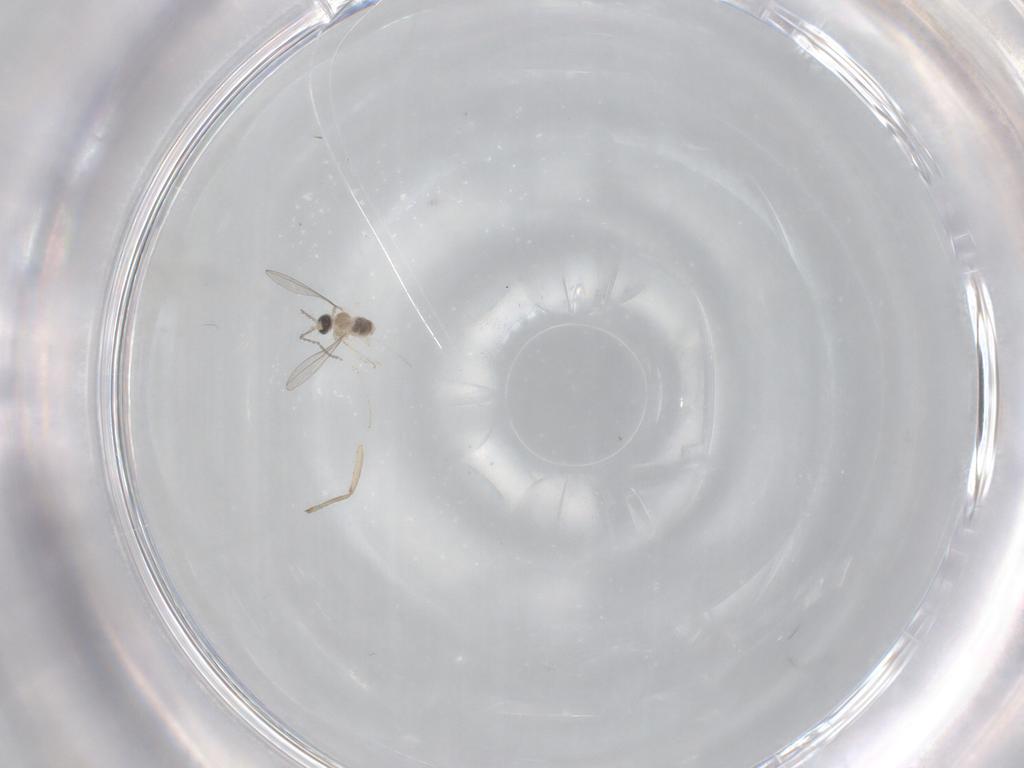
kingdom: Animalia
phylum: Arthropoda
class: Insecta
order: Diptera
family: Cecidomyiidae
